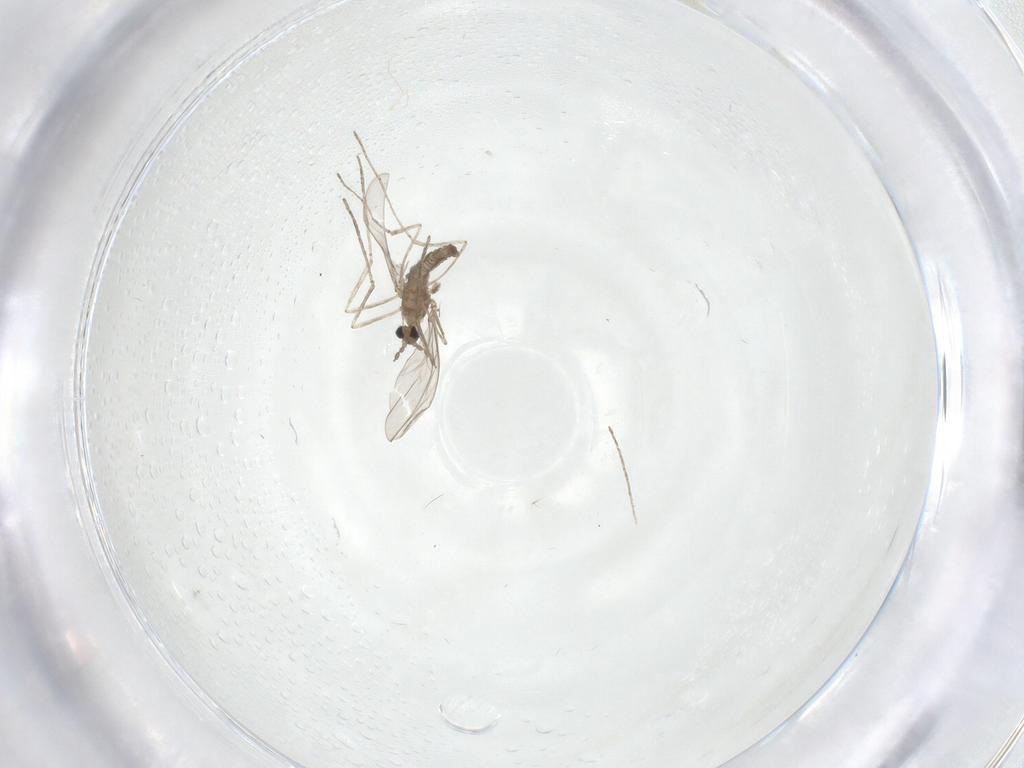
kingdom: Animalia
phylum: Arthropoda
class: Insecta
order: Diptera
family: Cecidomyiidae
